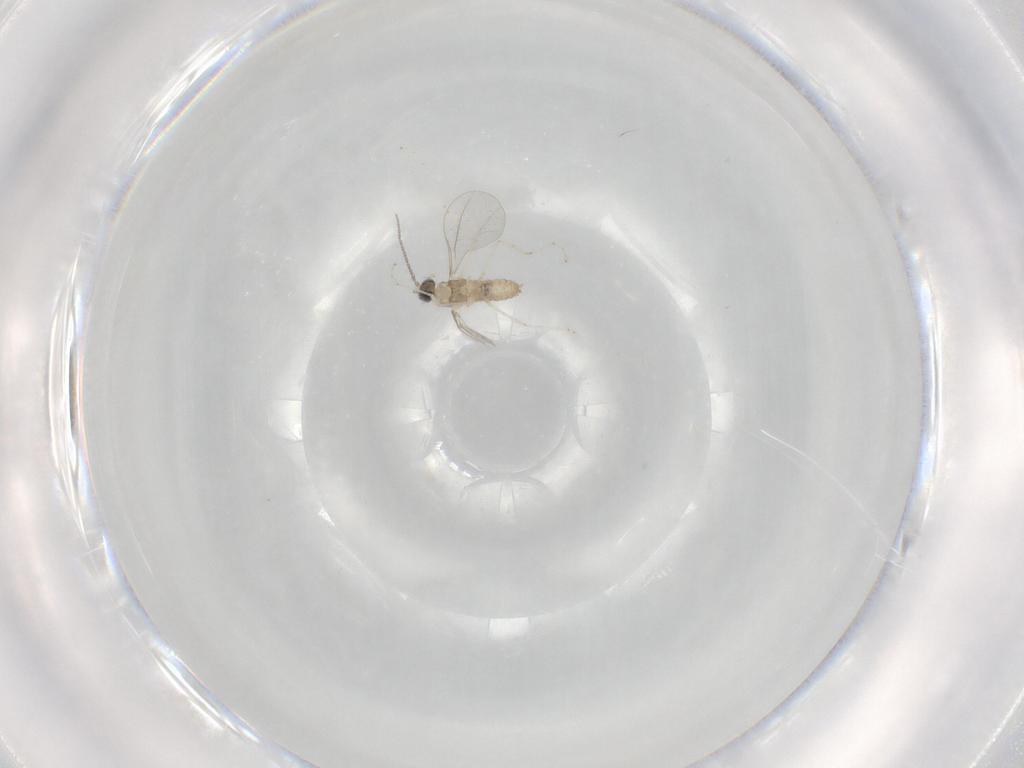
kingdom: Animalia
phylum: Arthropoda
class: Insecta
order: Diptera
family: Cecidomyiidae
